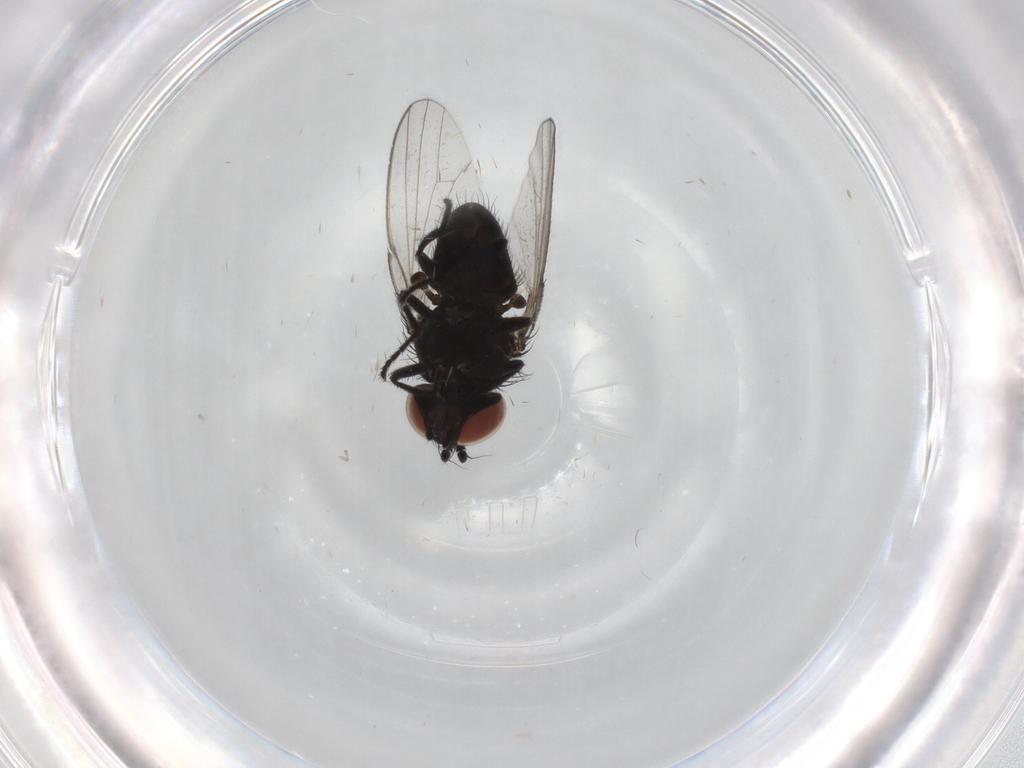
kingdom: Animalia
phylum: Arthropoda
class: Insecta
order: Diptera
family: Milichiidae
